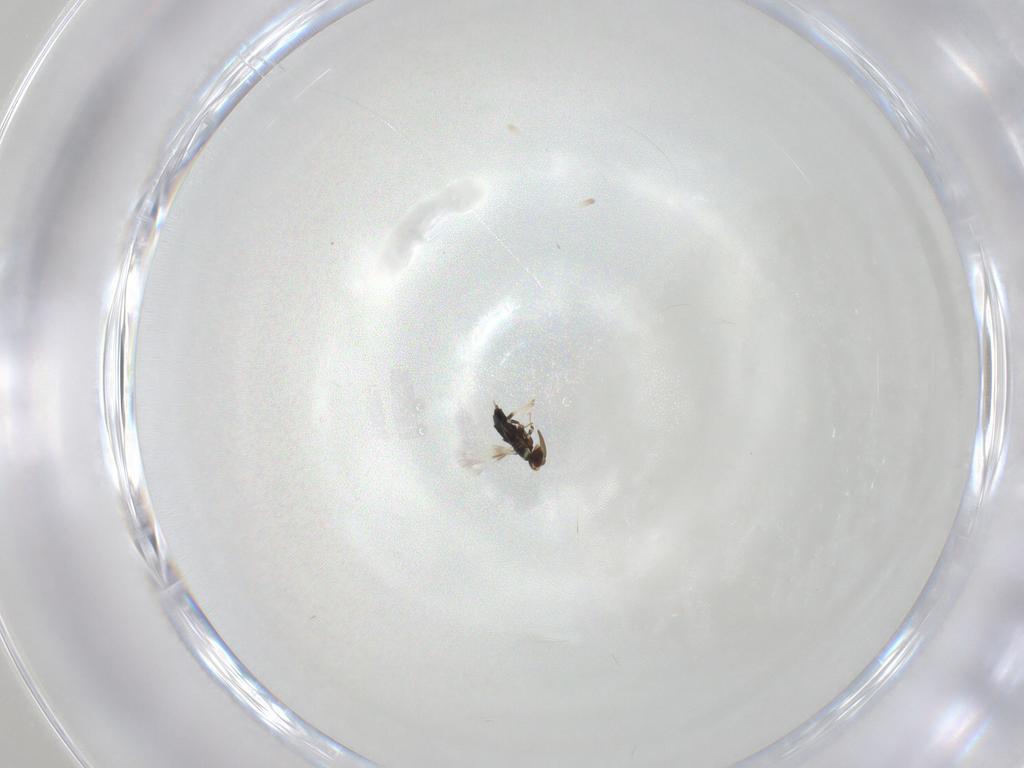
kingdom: Animalia
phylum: Arthropoda
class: Insecta
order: Hymenoptera
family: Signiphoridae
